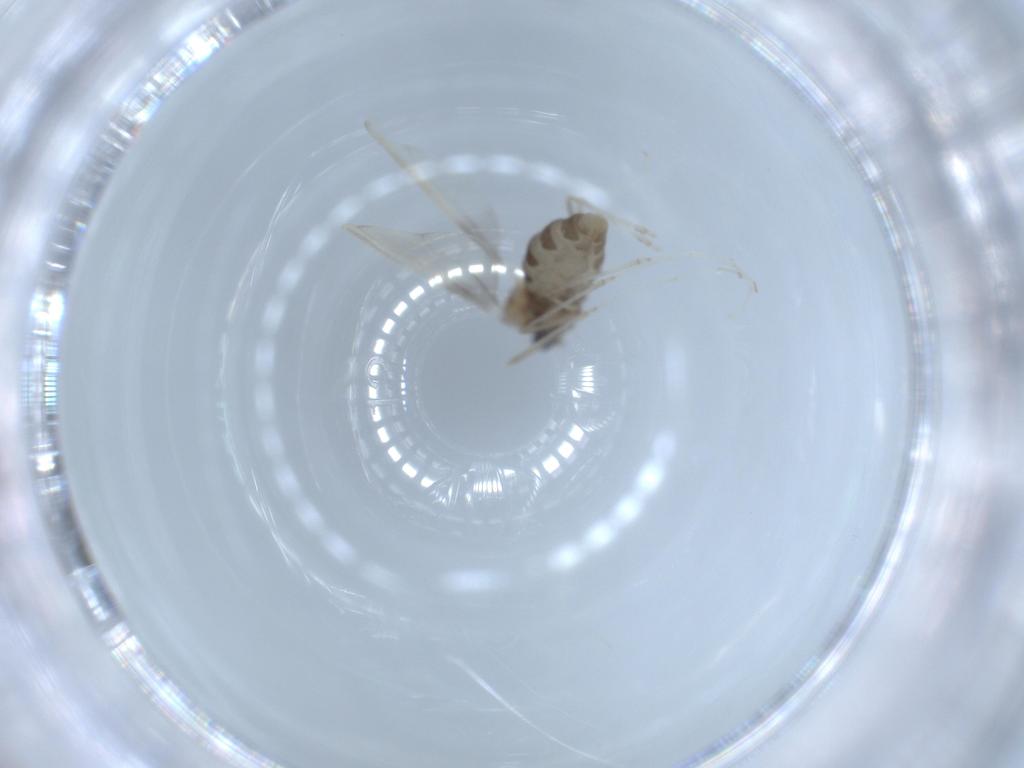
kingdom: Animalia
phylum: Arthropoda
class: Insecta
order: Diptera
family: Cecidomyiidae
